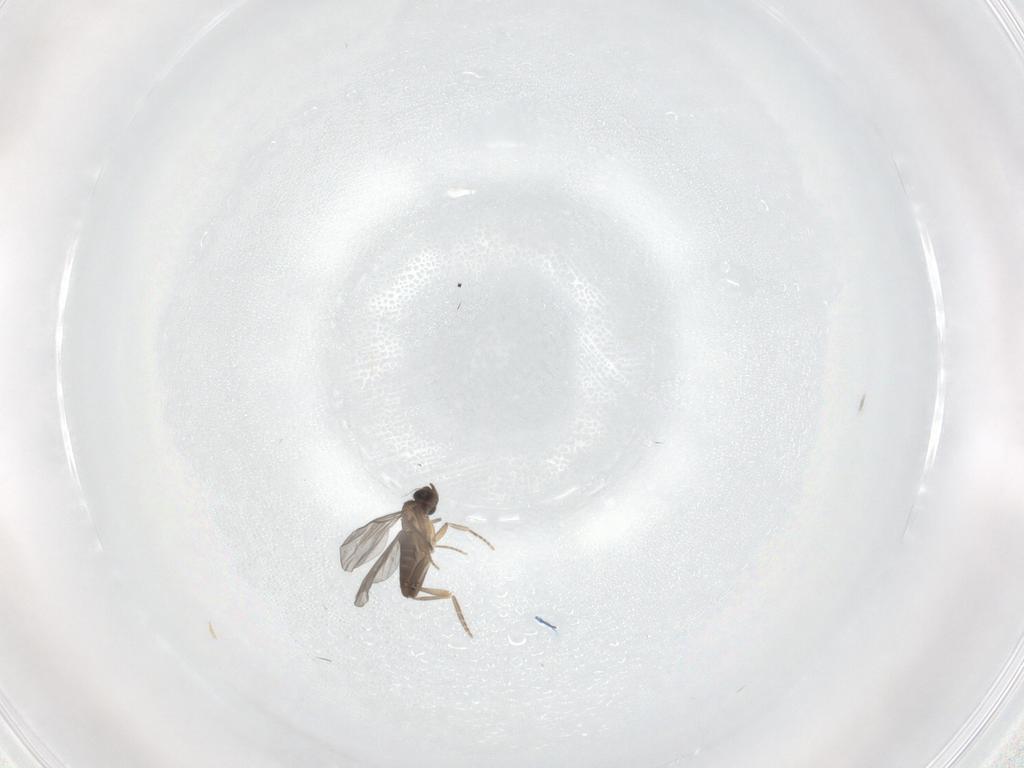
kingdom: Animalia
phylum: Arthropoda
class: Insecta
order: Diptera
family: Phoridae
